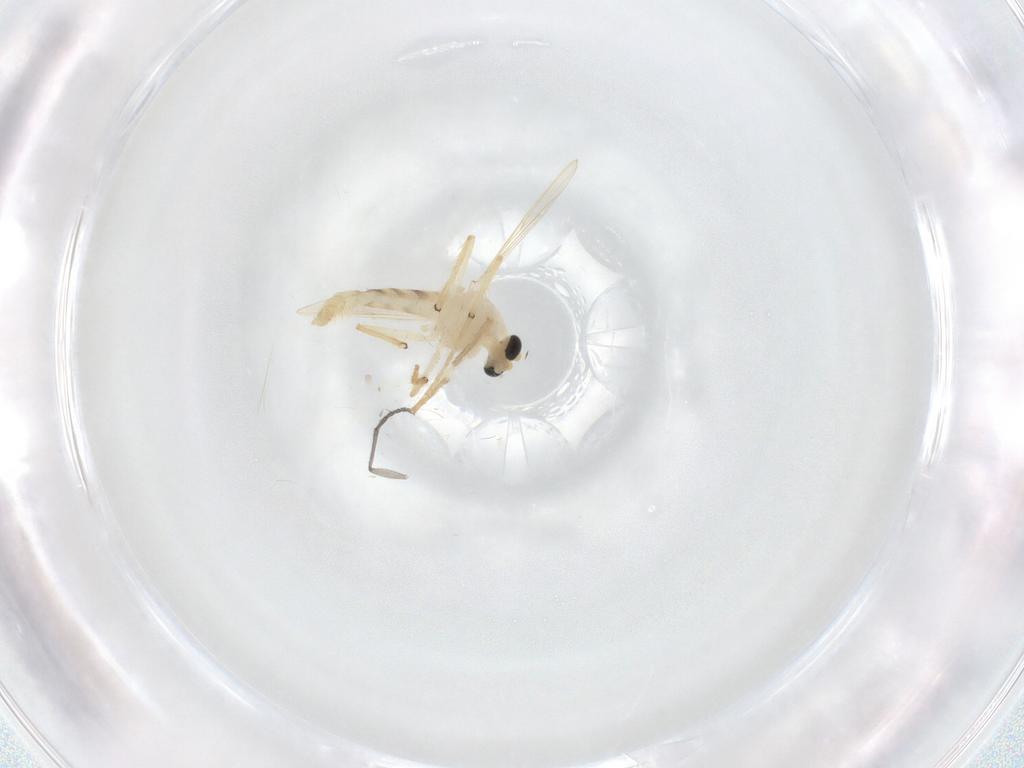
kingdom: Animalia
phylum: Arthropoda
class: Insecta
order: Diptera
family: Chironomidae
